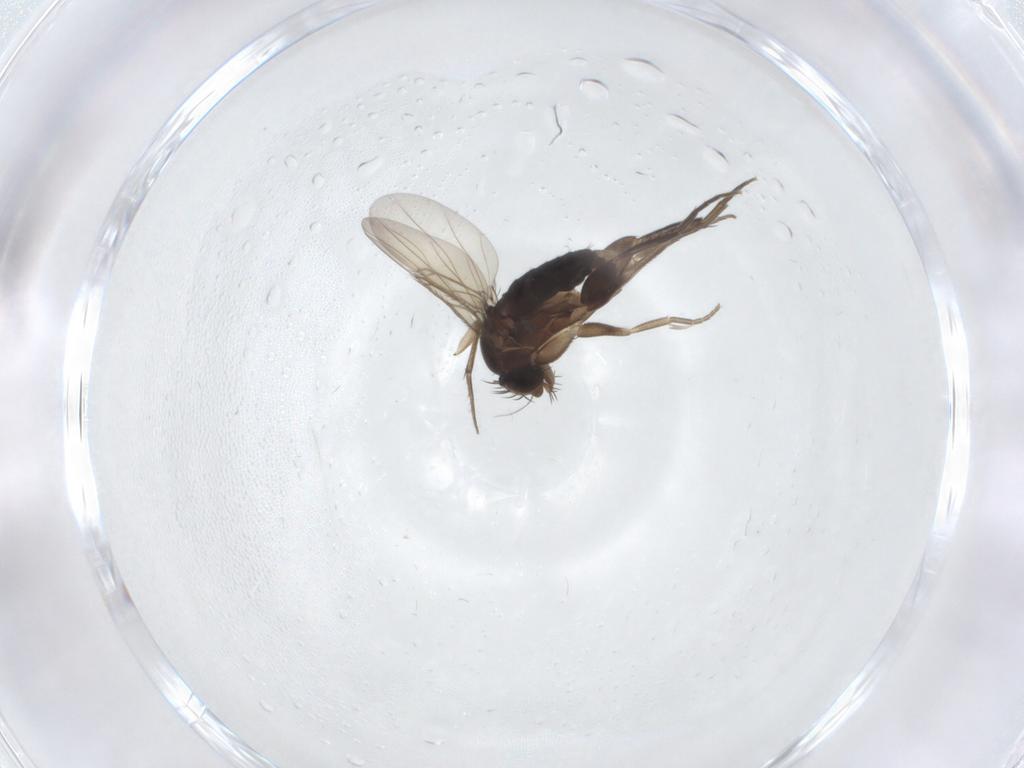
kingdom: Animalia
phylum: Arthropoda
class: Insecta
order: Diptera
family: Phoridae
